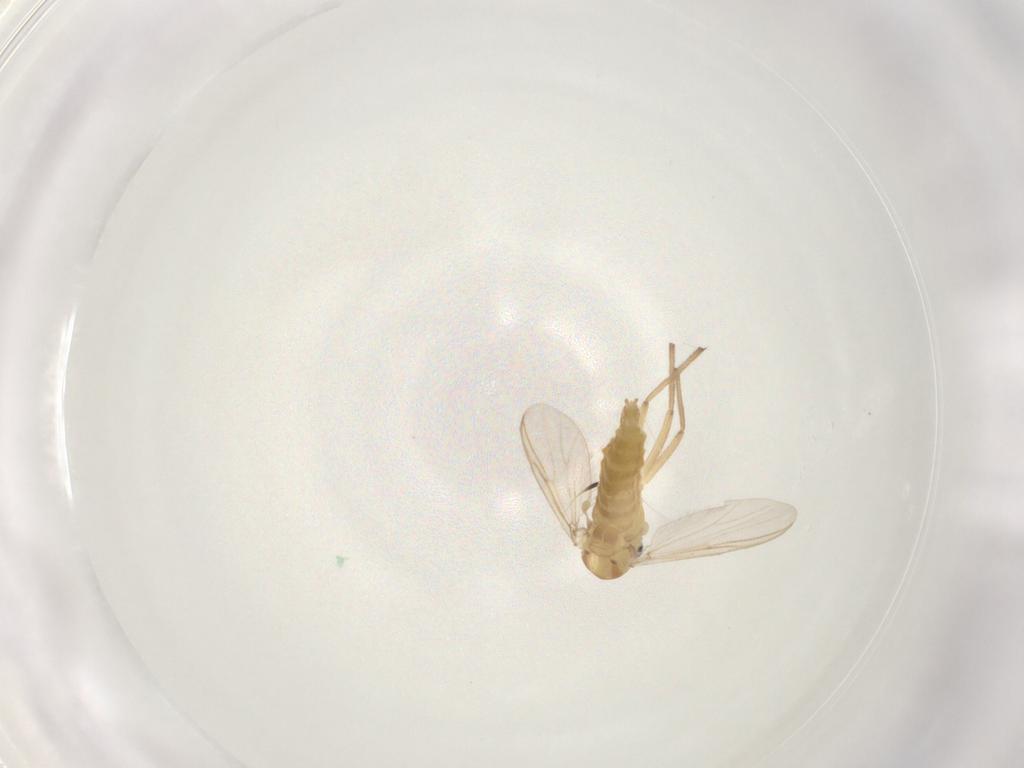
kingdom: Animalia
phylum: Arthropoda
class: Insecta
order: Diptera
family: Chironomidae
